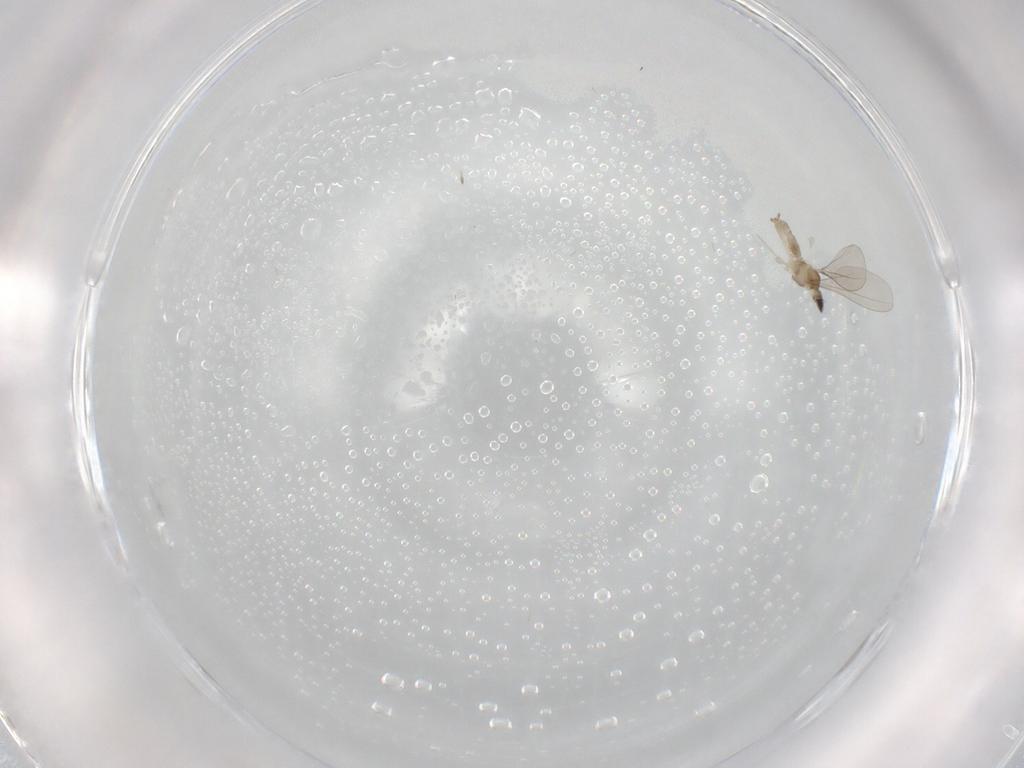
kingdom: Animalia
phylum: Arthropoda
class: Insecta
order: Diptera
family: Cecidomyiidae
